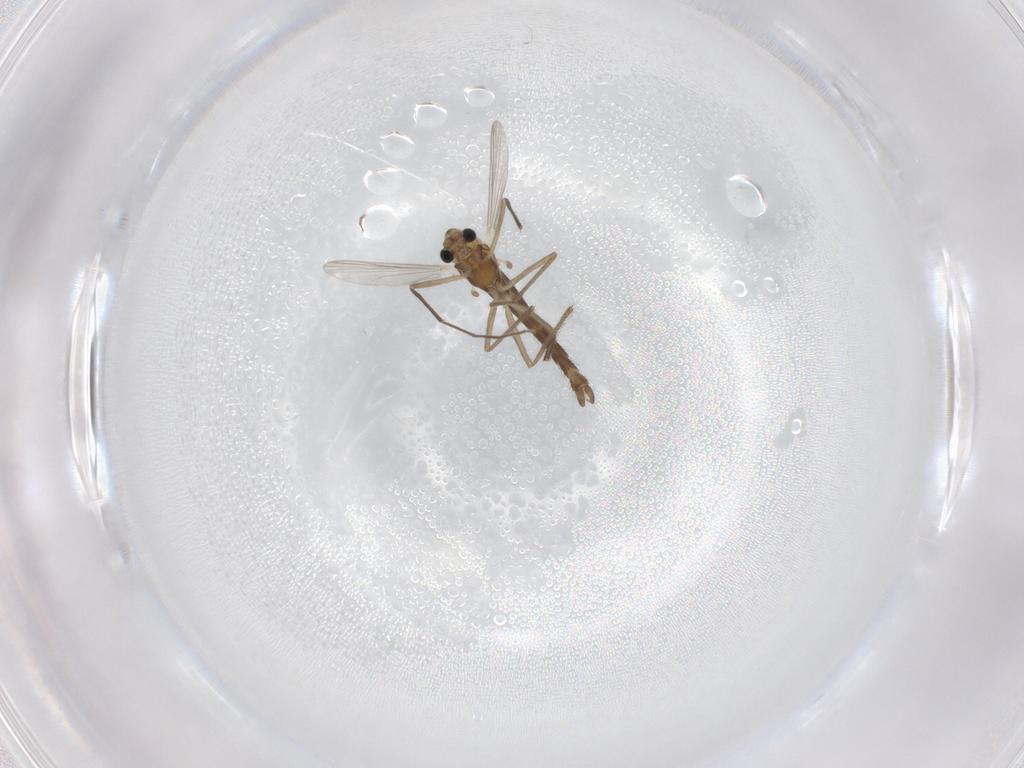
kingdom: Animalia
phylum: Arthropoda
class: Insecta
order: Diptera
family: Chironomidae
